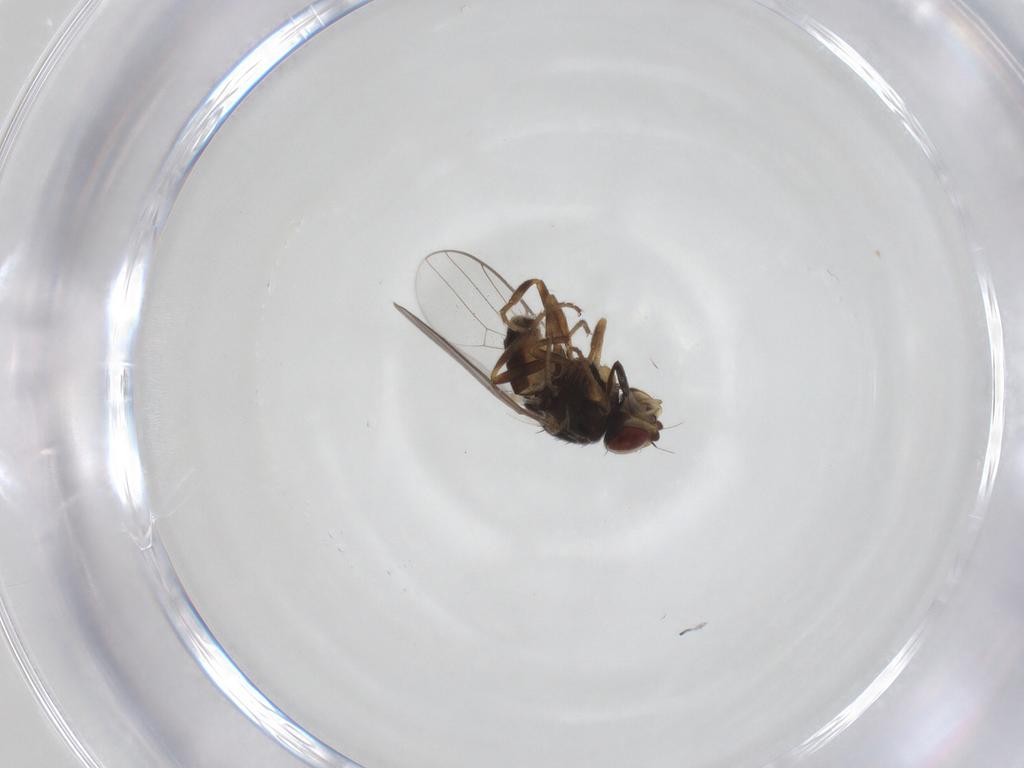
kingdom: Animalia
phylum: Arthropoda
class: Insecta
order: Diptera
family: Chloropidae
